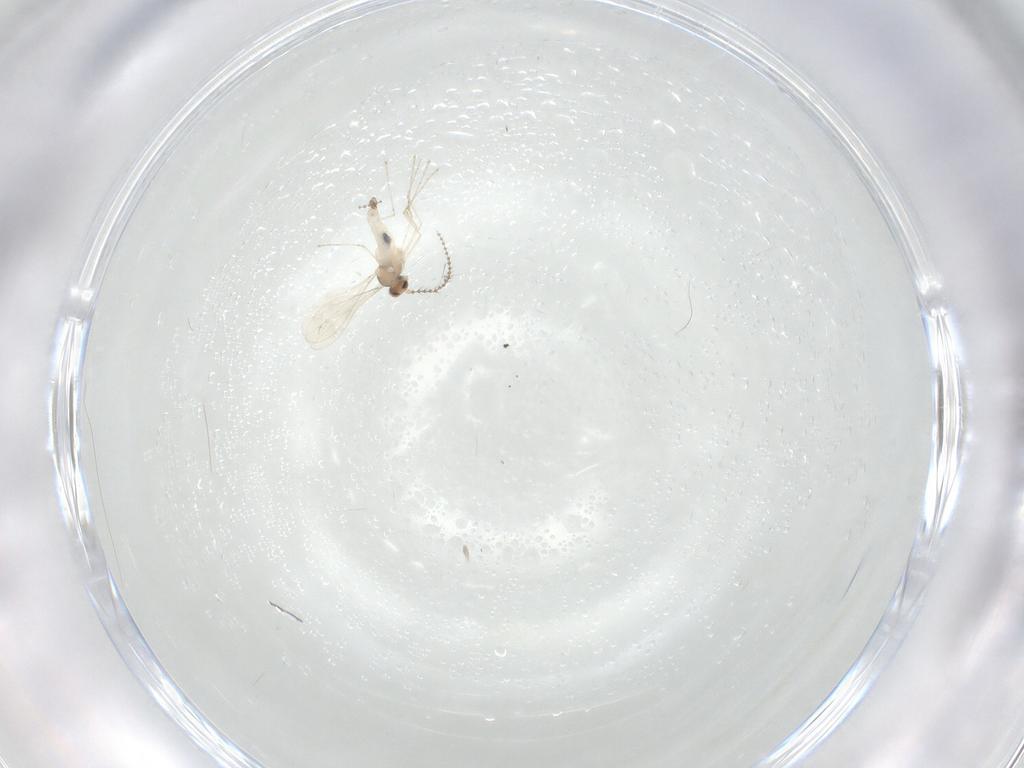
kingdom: Animalia
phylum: Arthropoda
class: Insecta
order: Diptera
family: Cecidomyiidae
